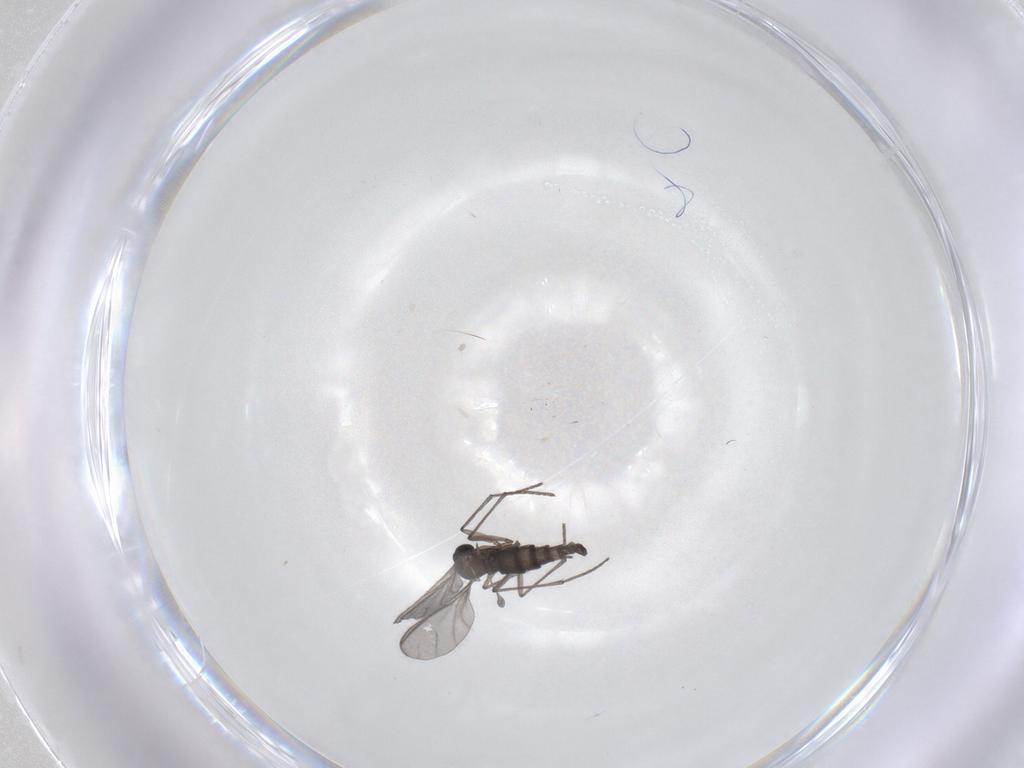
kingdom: Animalia
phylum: Arthropoda
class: Insecta
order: Diptera
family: Sciaridae
